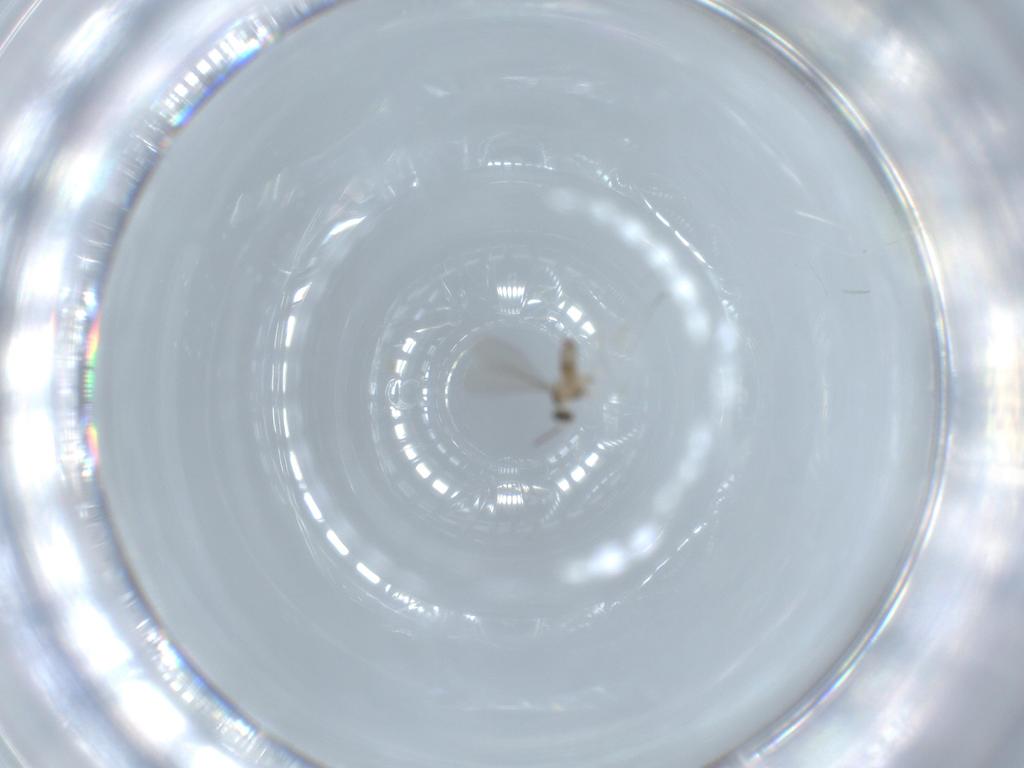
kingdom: Animalia
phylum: Arthropoda
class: Insecta
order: Diptera
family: Cecidomyiidae
